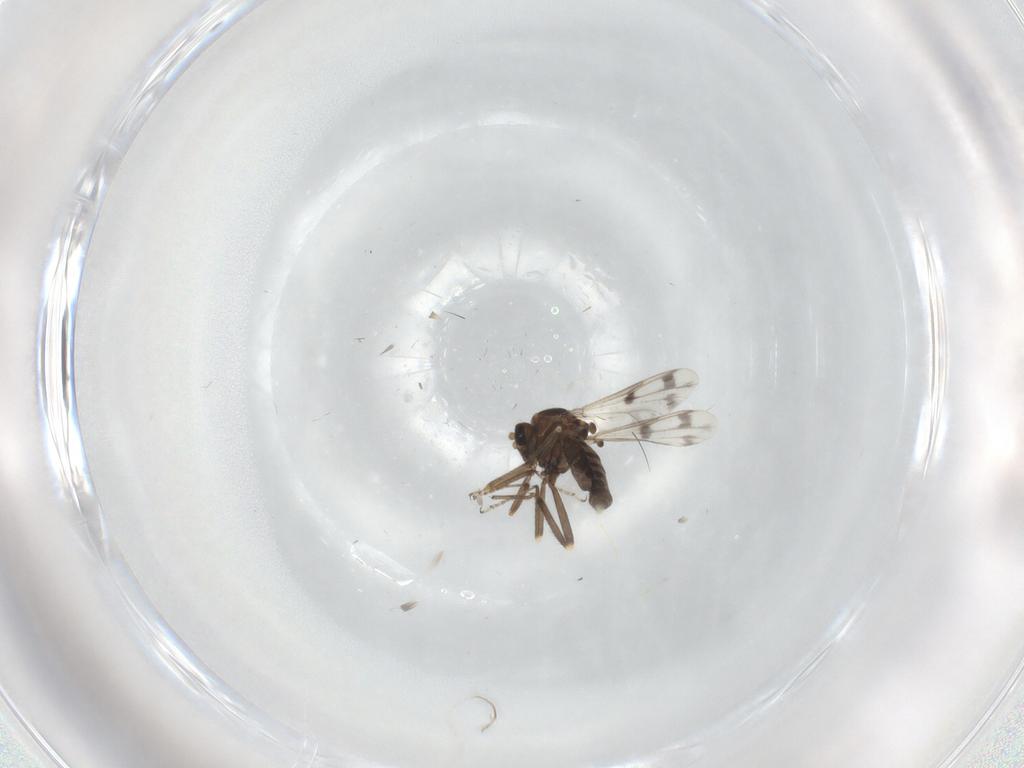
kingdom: Animalia
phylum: Arthropoda
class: Insecta
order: Diptera
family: Ceratopogonidae
